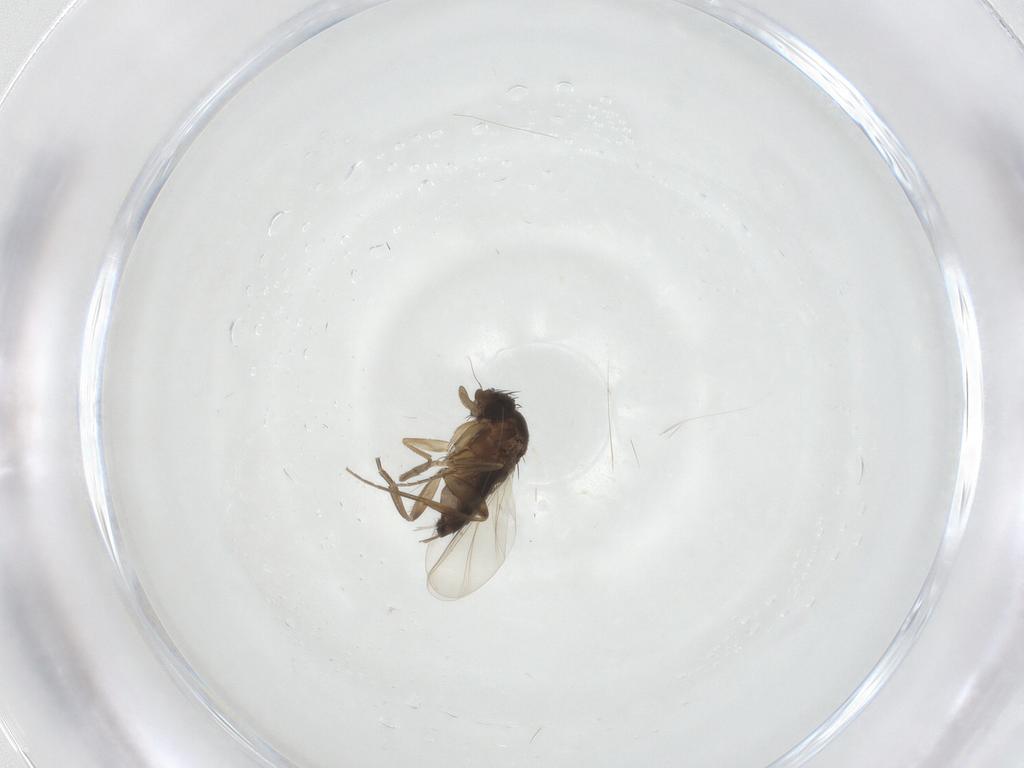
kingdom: Animalia
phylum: Arthropoda
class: Insecta
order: Diptera
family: Phoridae
